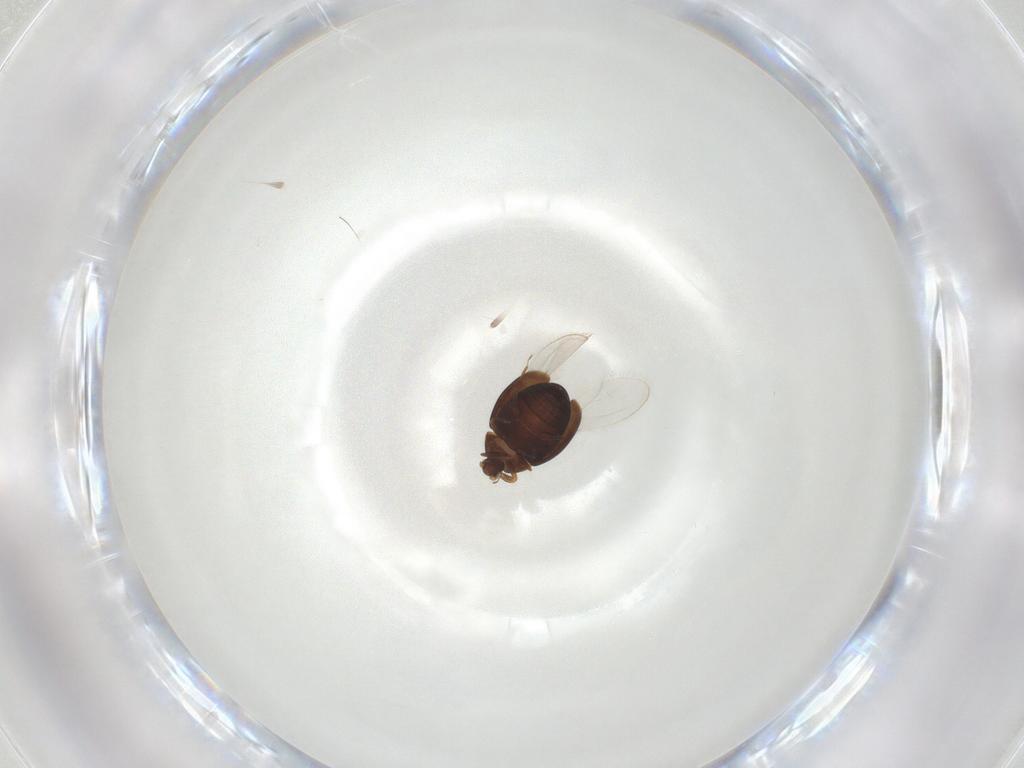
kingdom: Animalia
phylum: Arthropoda
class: Insecta
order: Coleoptera
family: Corylophidae
